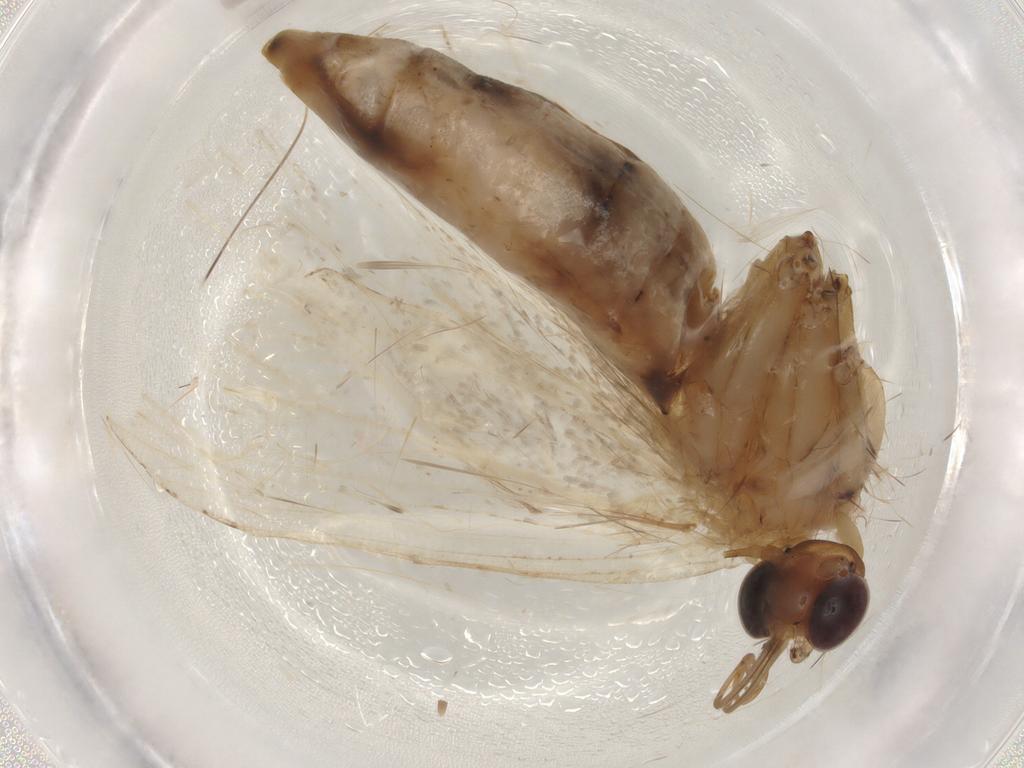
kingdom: Animalia
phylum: Arthropoda
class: Insecta
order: Lepidoptera
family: Erebidae
